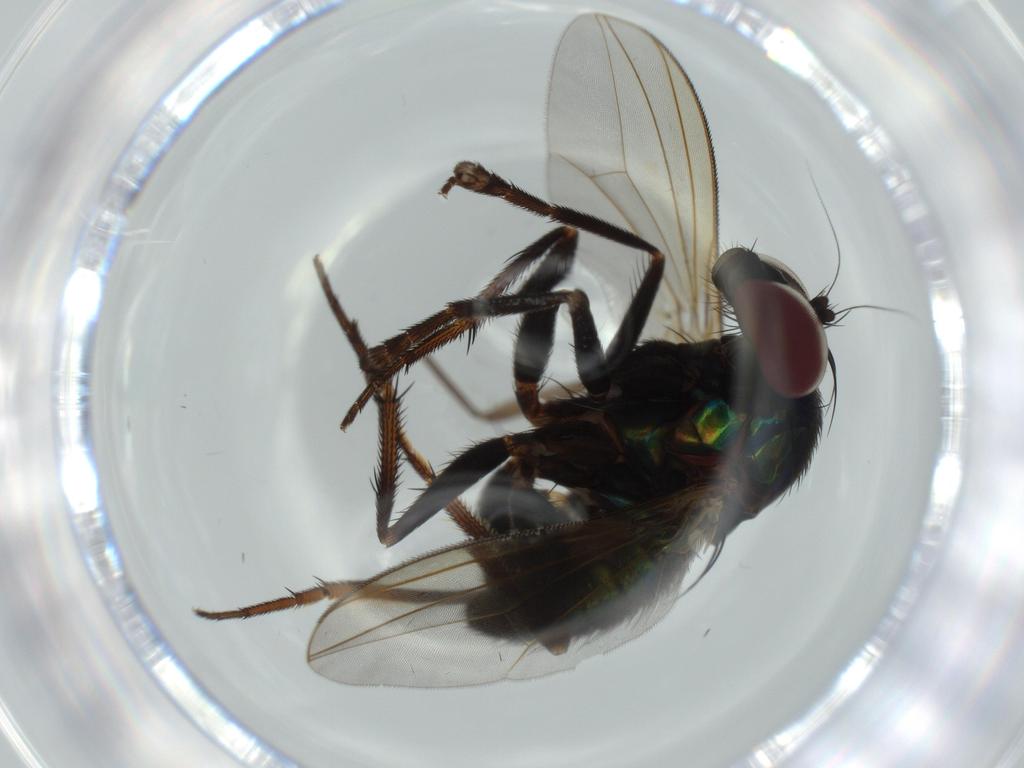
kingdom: Animalia
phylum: Arthropoda
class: Insecta
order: Diptera
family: Dolichopodidae
